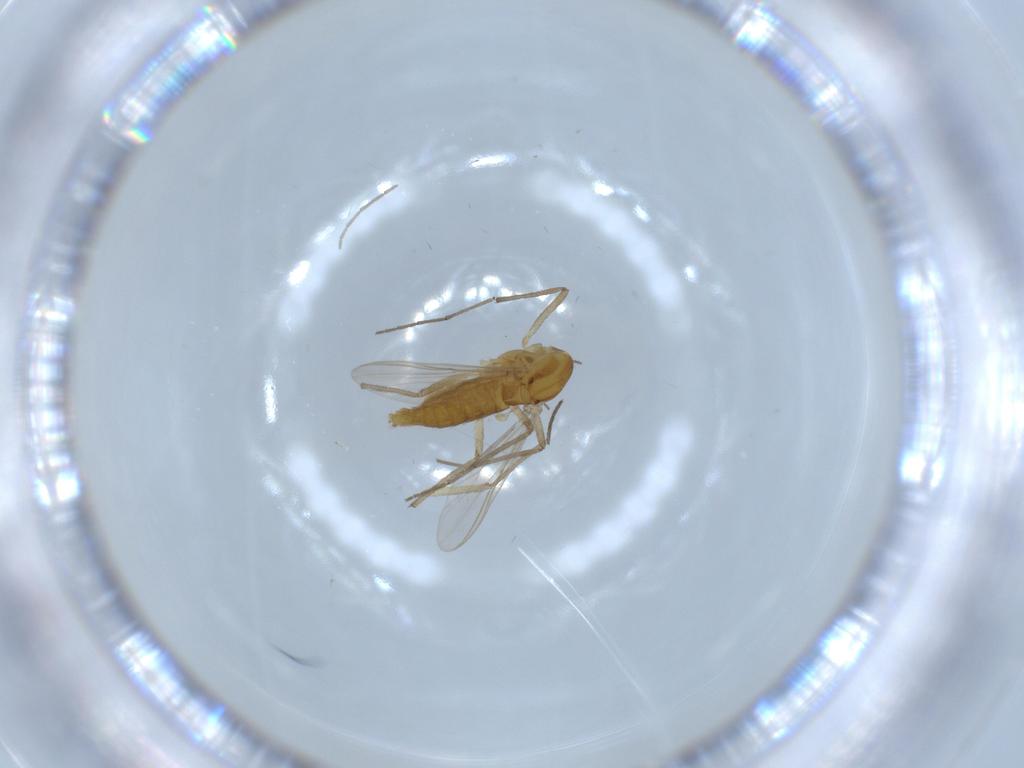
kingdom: Animalia
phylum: Arthropoda
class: Insecta
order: Diptera
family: Chironomidae
